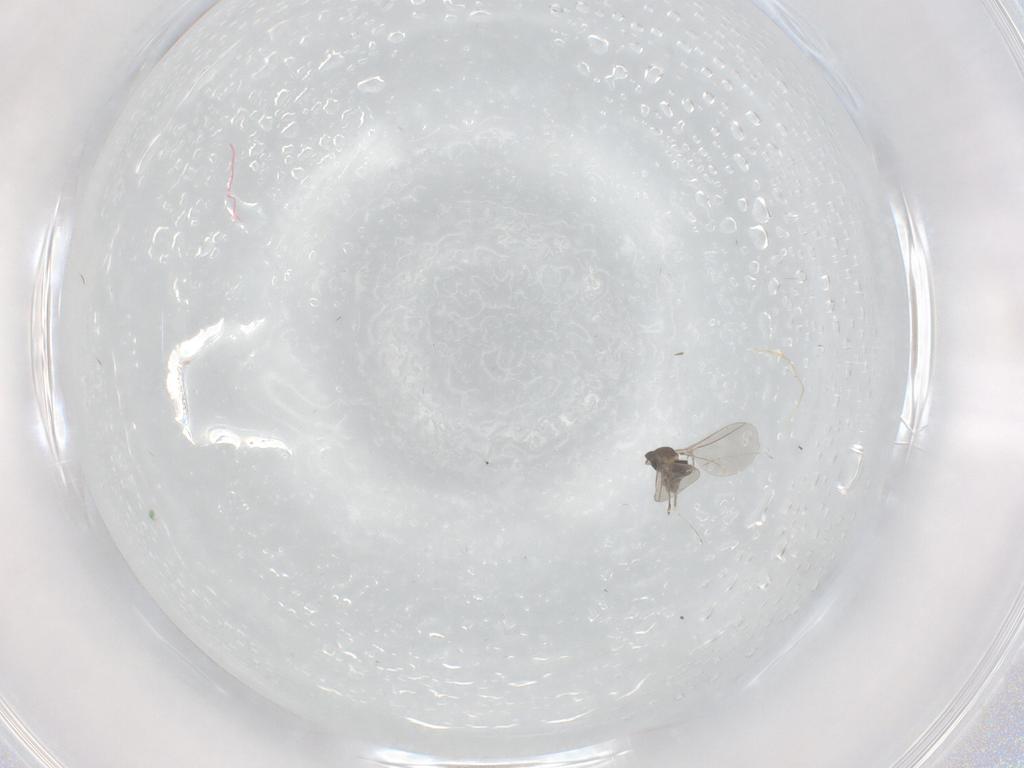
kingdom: Animalia
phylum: Arthropoda
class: Insecta
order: Diptera
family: Cecidomyiidae
